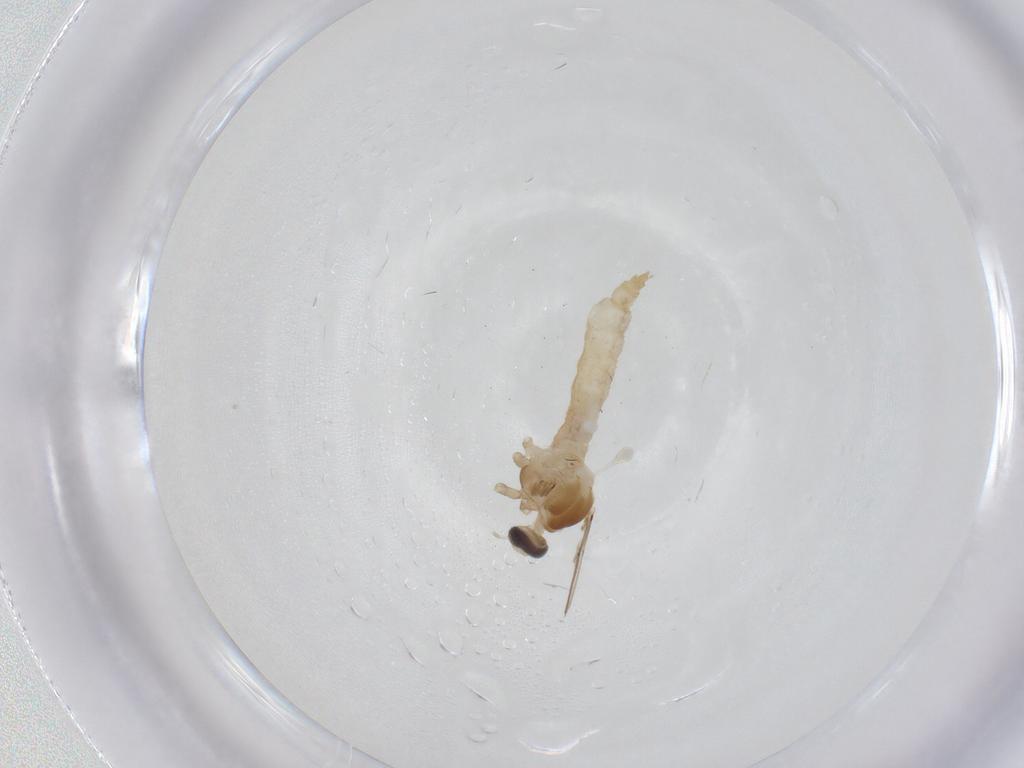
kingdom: Animalia
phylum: Arthropoda
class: Insecta
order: Diptera
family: Cecidomyiidae
